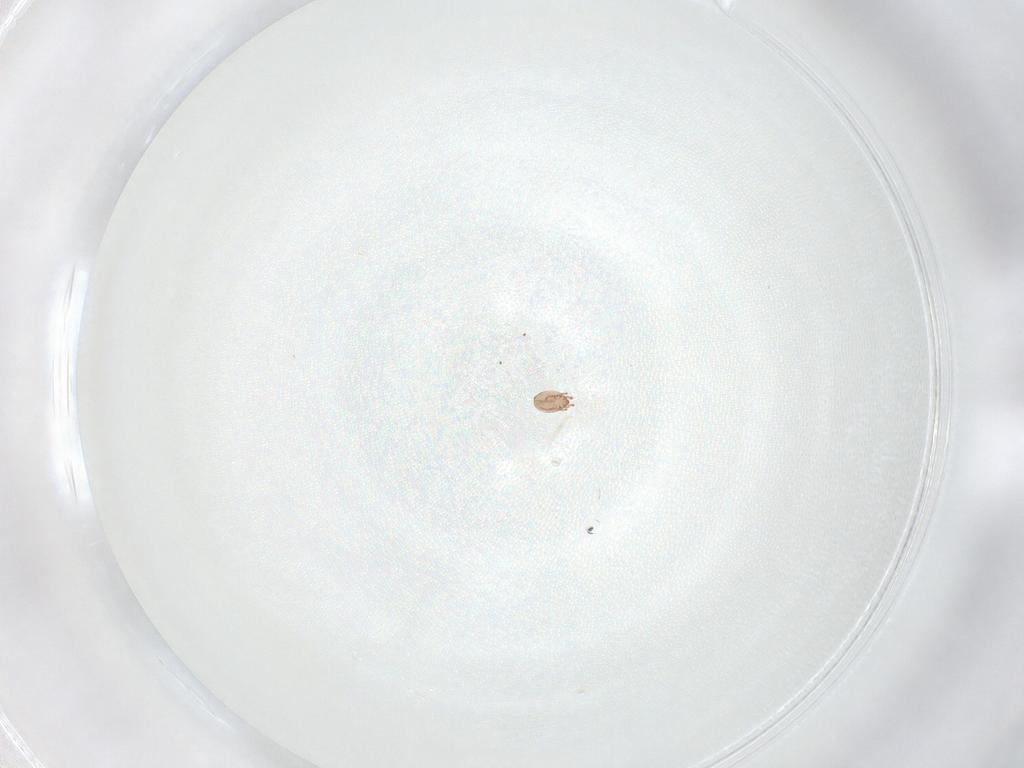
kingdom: Animalia
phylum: Arthropoda
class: Arachnida
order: Sarcoptiformes
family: Eremaeidae
